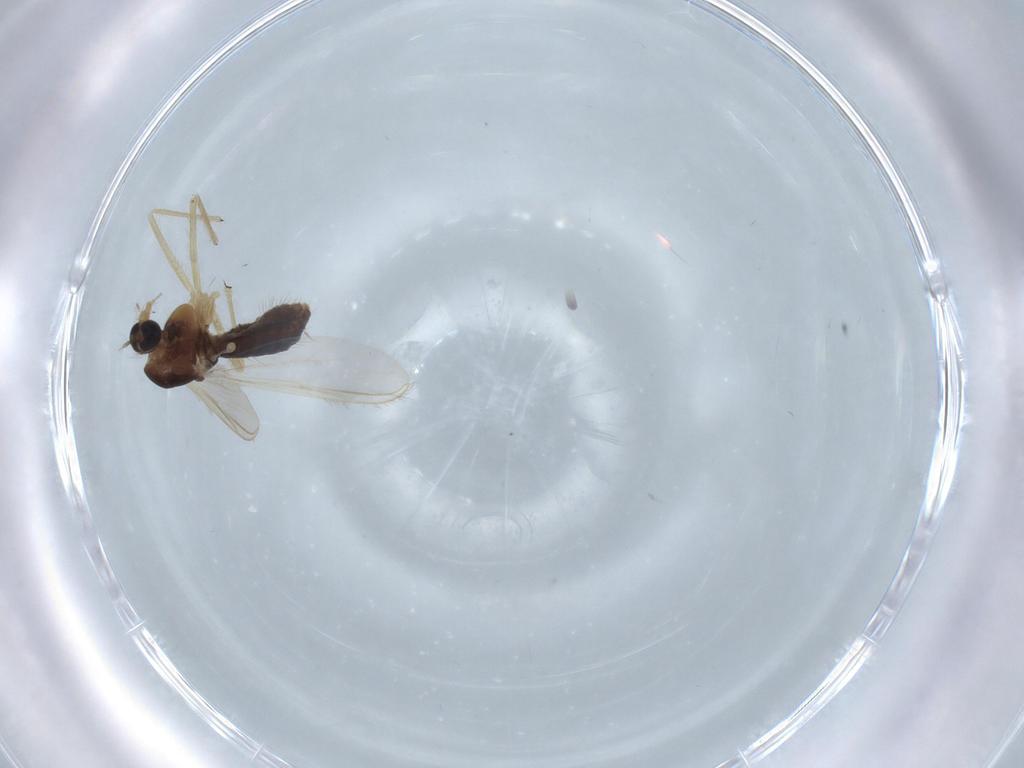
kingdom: Animalia
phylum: Arthropoda
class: Insecta
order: Diptera
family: Chironomidae
